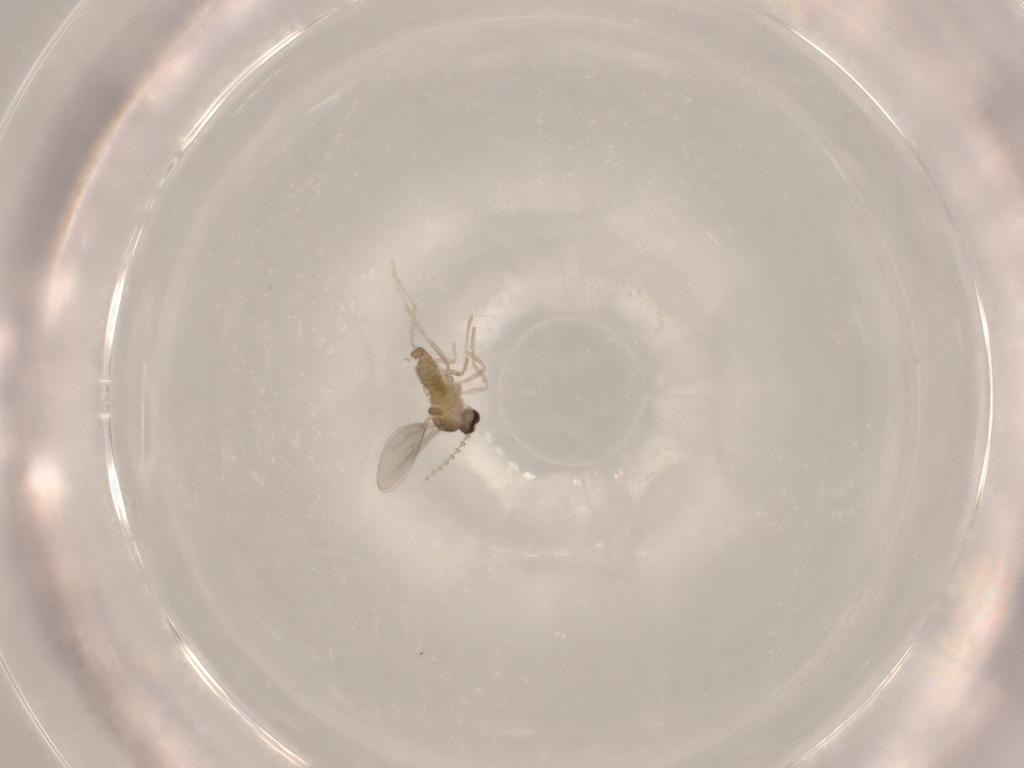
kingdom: Animalia
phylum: Arthropoda
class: Insecta
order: Diptera
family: Cecidomyiidae
